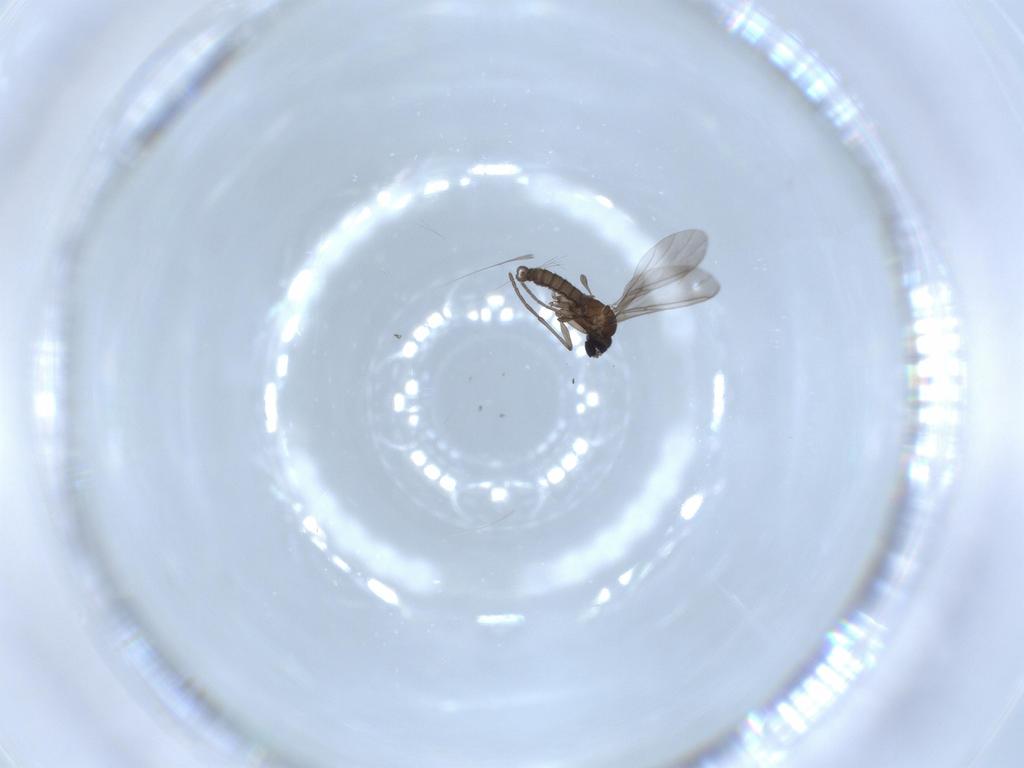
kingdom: Animalia
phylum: Arthropoda
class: Insecta
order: Diptera
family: Sciaridae
